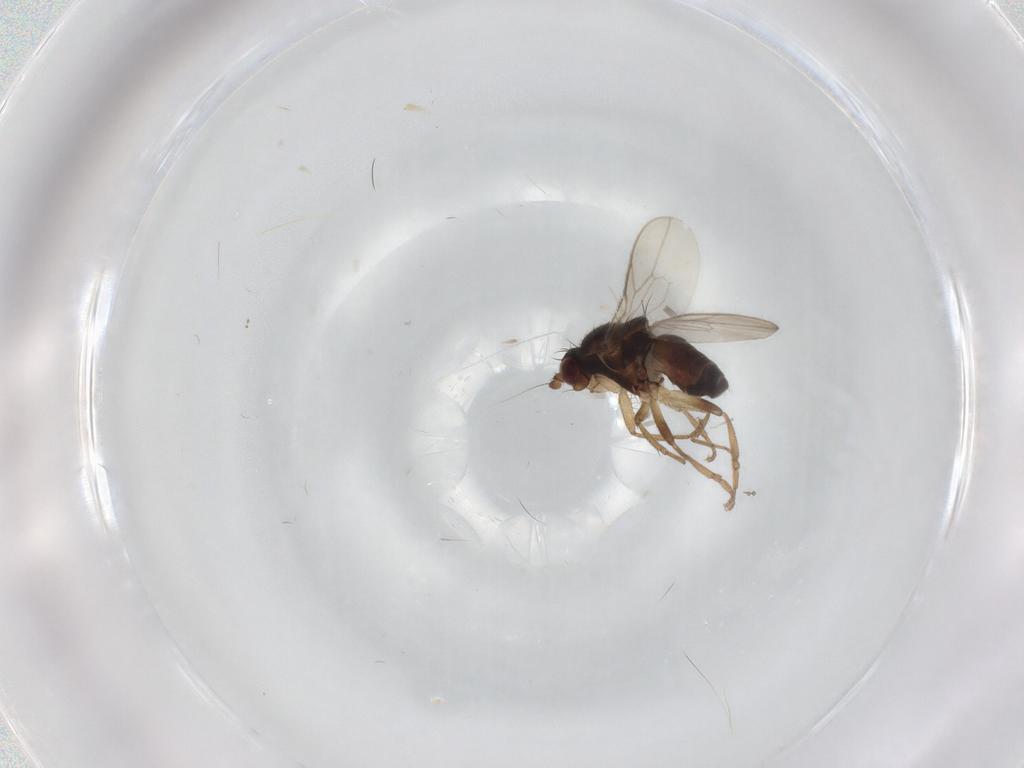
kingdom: Animalia
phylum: Arthropoda
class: Insecta
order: Diptera
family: Sphaeroceridae
